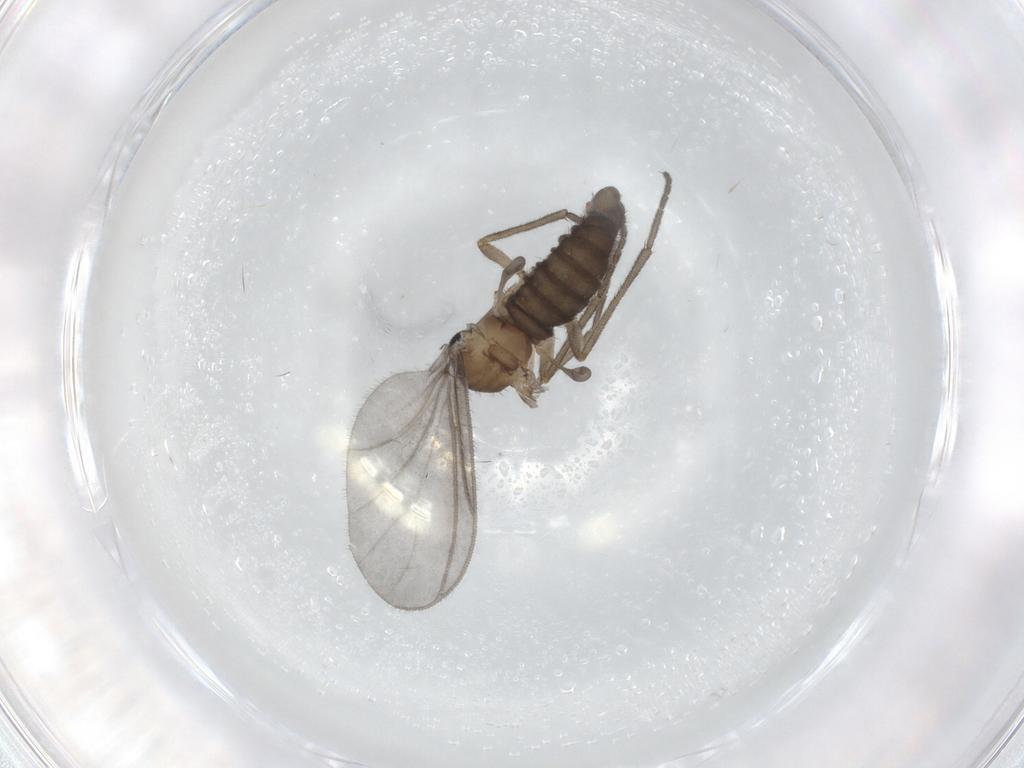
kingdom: Animalia
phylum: Arthropoda
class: Insecta
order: Diptera
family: Sciaridae
